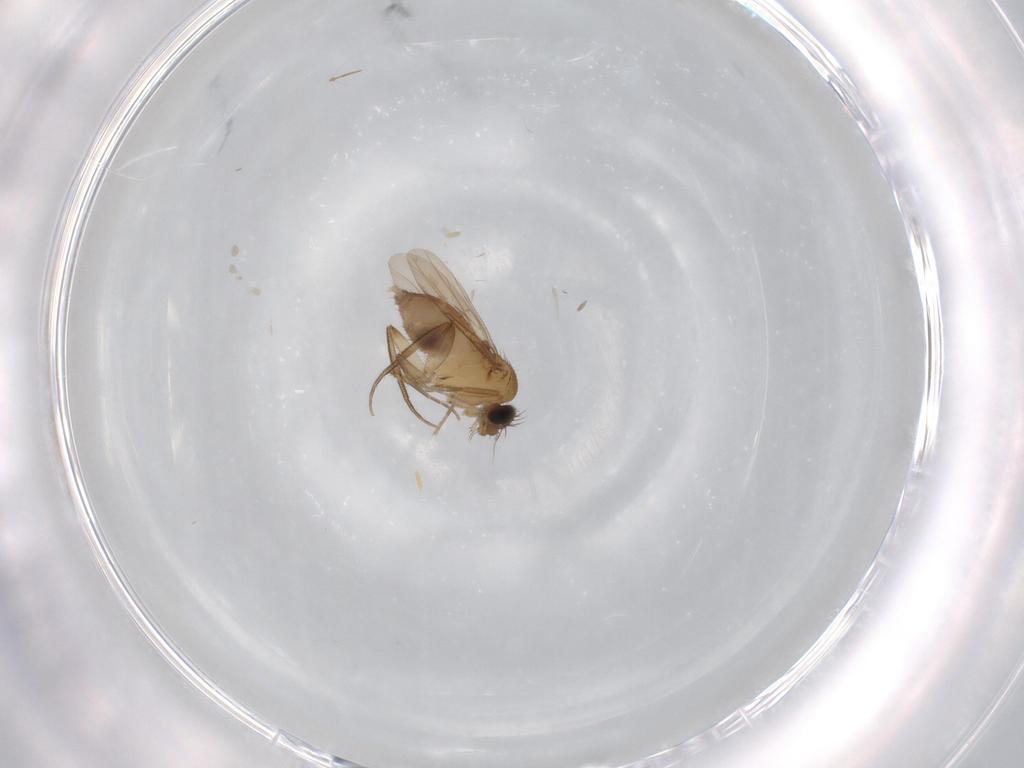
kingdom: Animalia
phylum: Arthropoda
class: Insecta
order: Diptera
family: Phoridae
